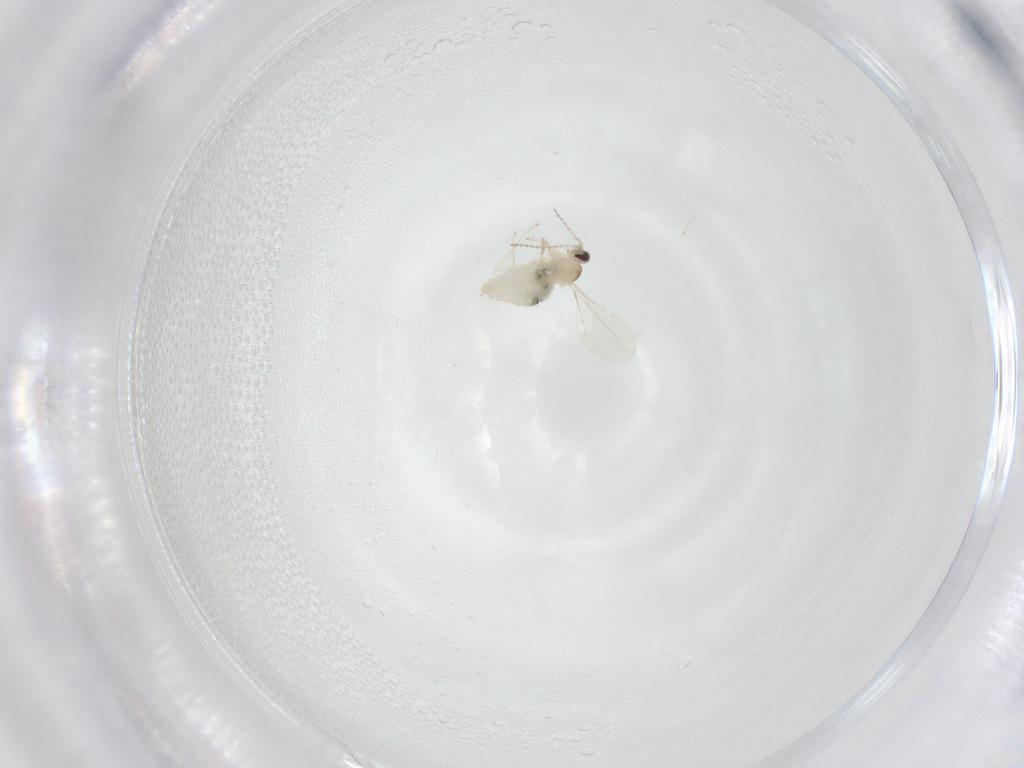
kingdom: Animalia
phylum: Arthropoda
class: Insecta
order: Diptera
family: Cecidomyiidae
